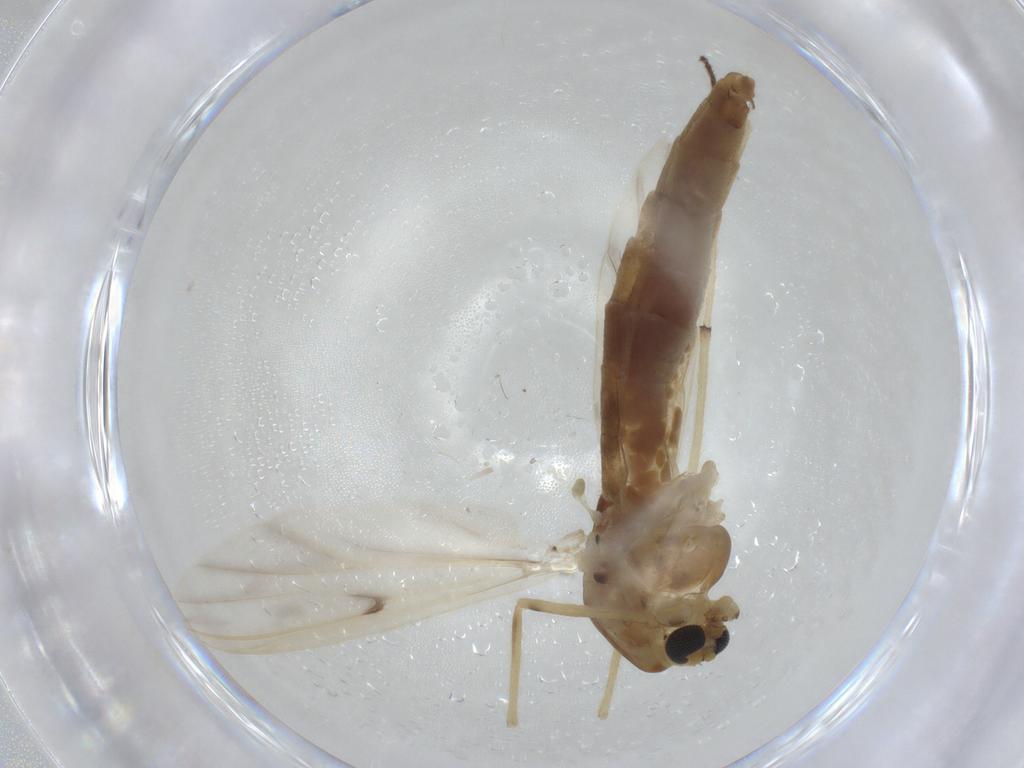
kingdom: Animalia
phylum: Arthropoda
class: Insecta
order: Diptera
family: Chironomidae
